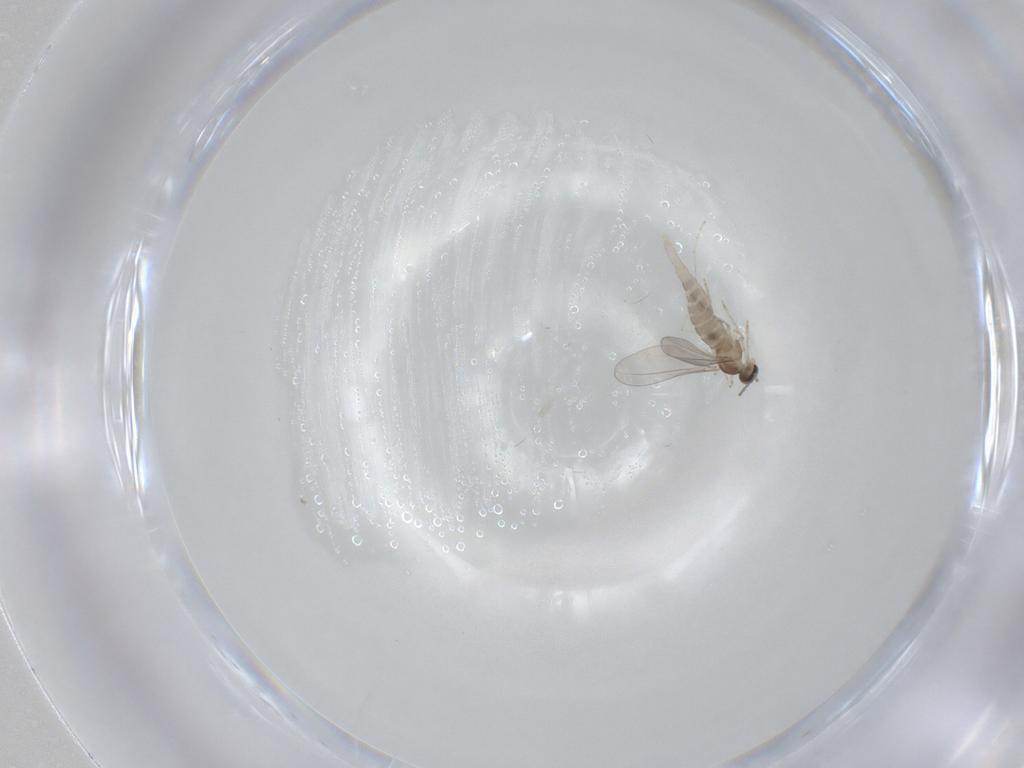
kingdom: Animalia
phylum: Arthropoda
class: Insecta
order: Diptera
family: Cecidomyiidae
